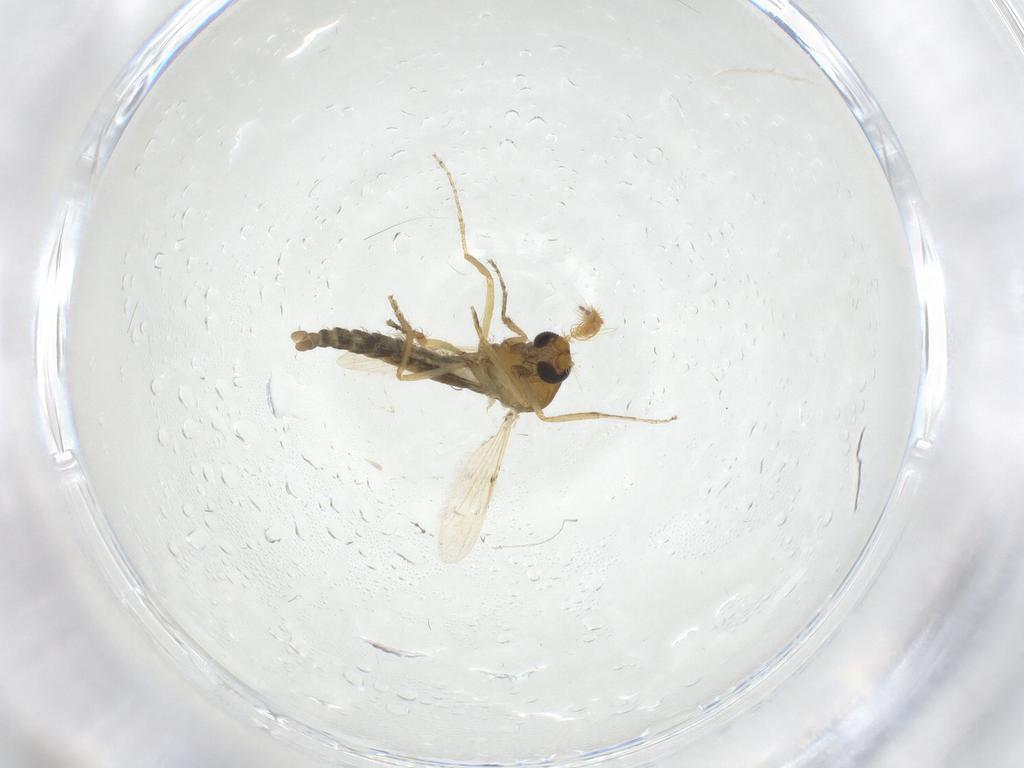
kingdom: Animalia
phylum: Arthropoda
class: Insecta
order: Diptera
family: Ceratopogonidae
